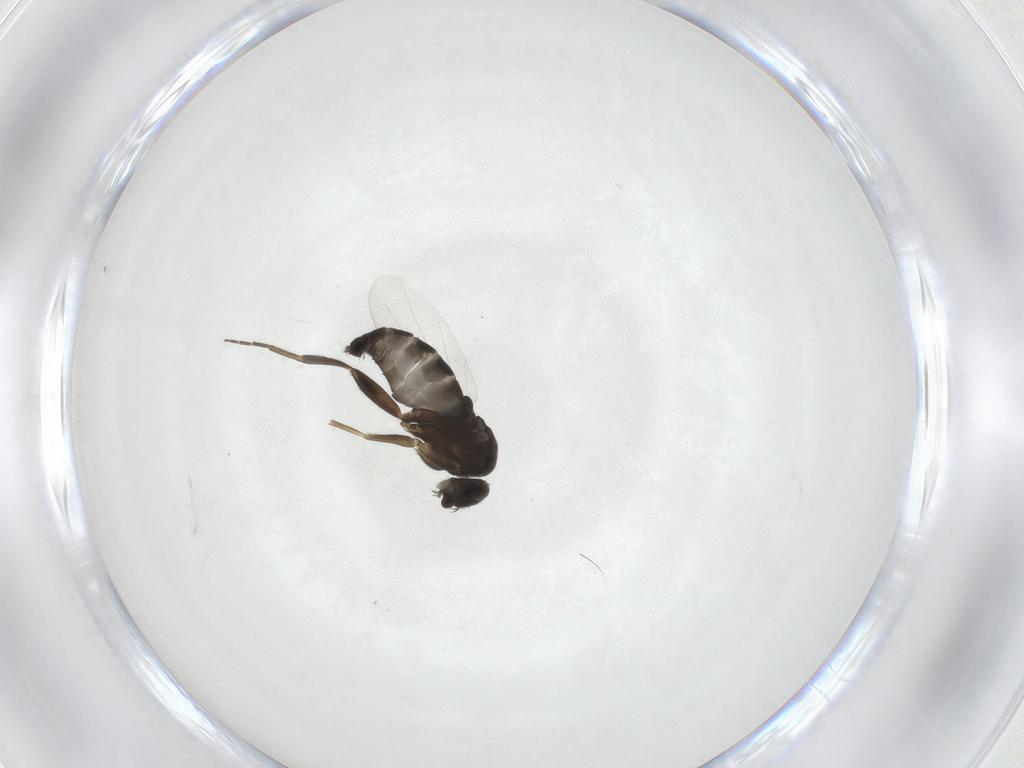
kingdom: Animalia
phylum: Arthropoda
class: Insecta
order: Diptera
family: Phoridae
